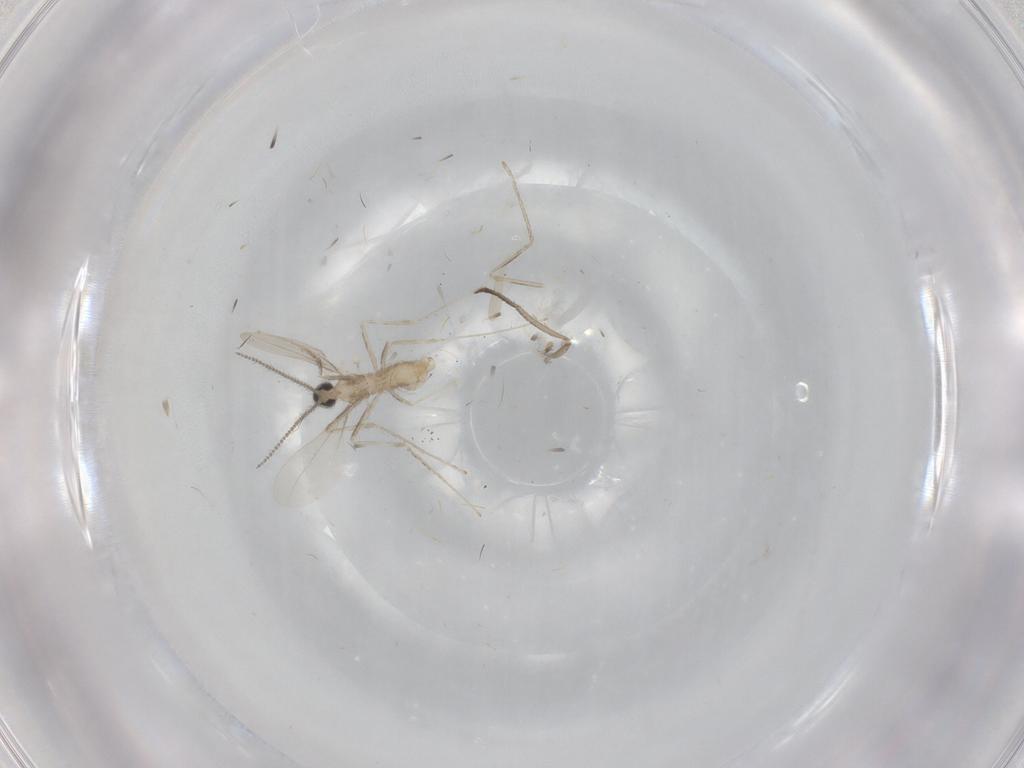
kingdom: Animalia
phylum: Arthropoda
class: Insecta
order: Diptera
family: Cecidomyiidae
